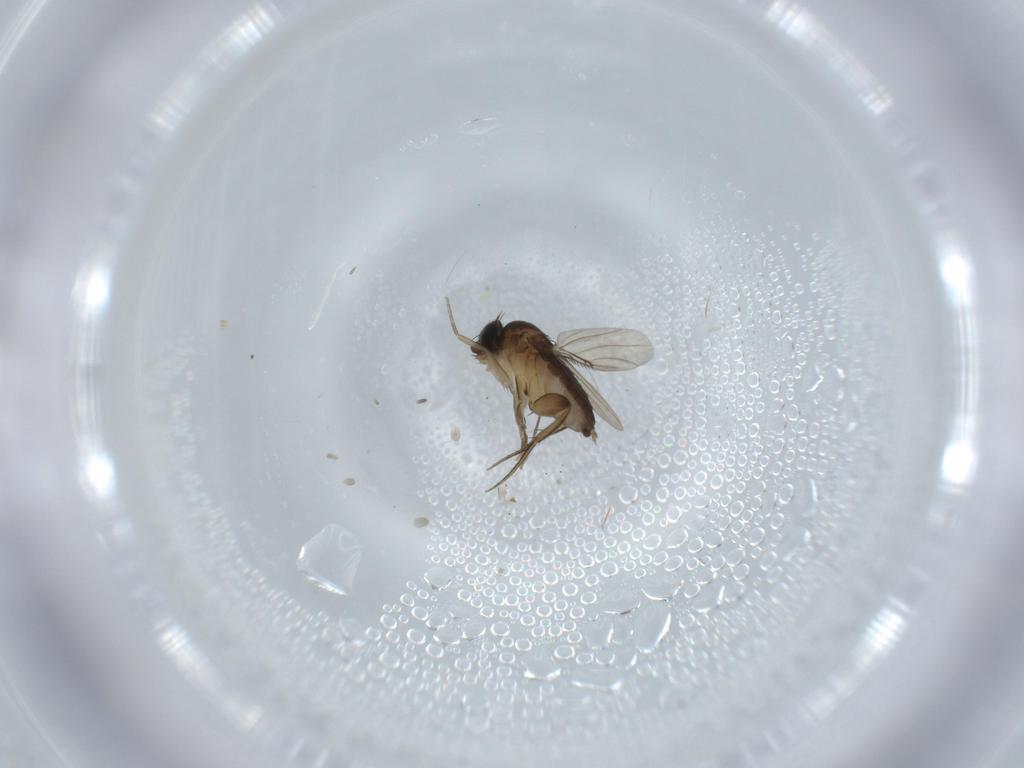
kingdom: Animalia
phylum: Arthropoda
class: Insecta
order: Diptera
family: Phoridae
